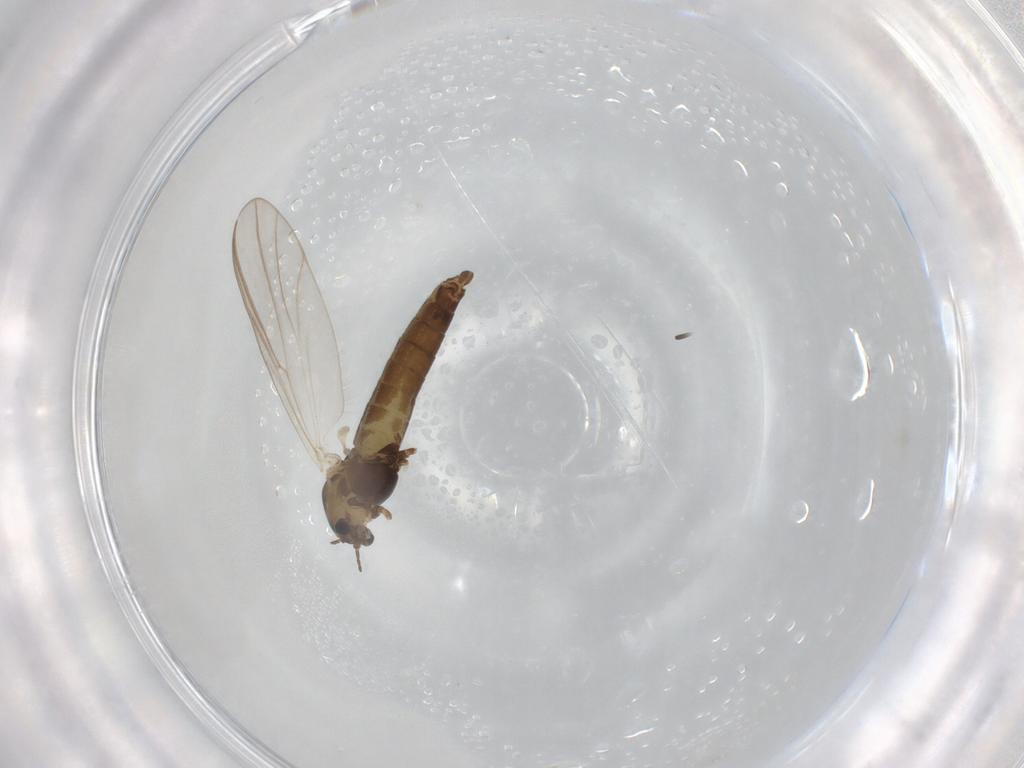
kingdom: Animalia
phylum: Arthropoda
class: Insecta
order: Diptera
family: Chironomidae
